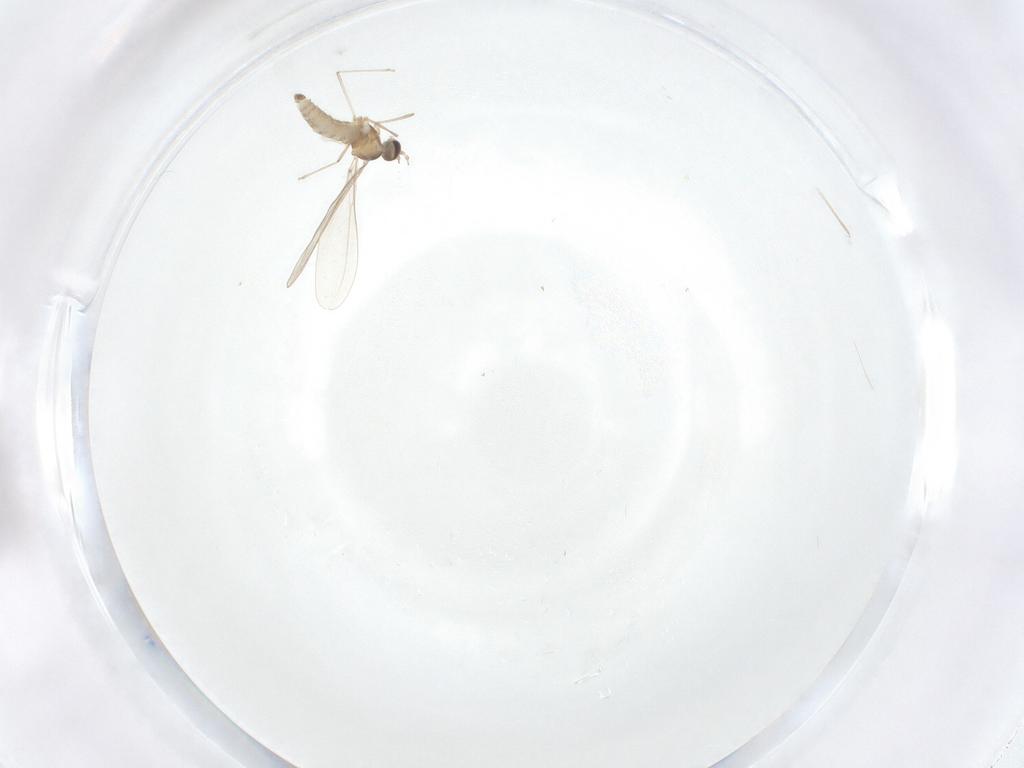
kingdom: Animalia
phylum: Arthropoda
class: Insecta
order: Diptera
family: Cecidomyiidae
